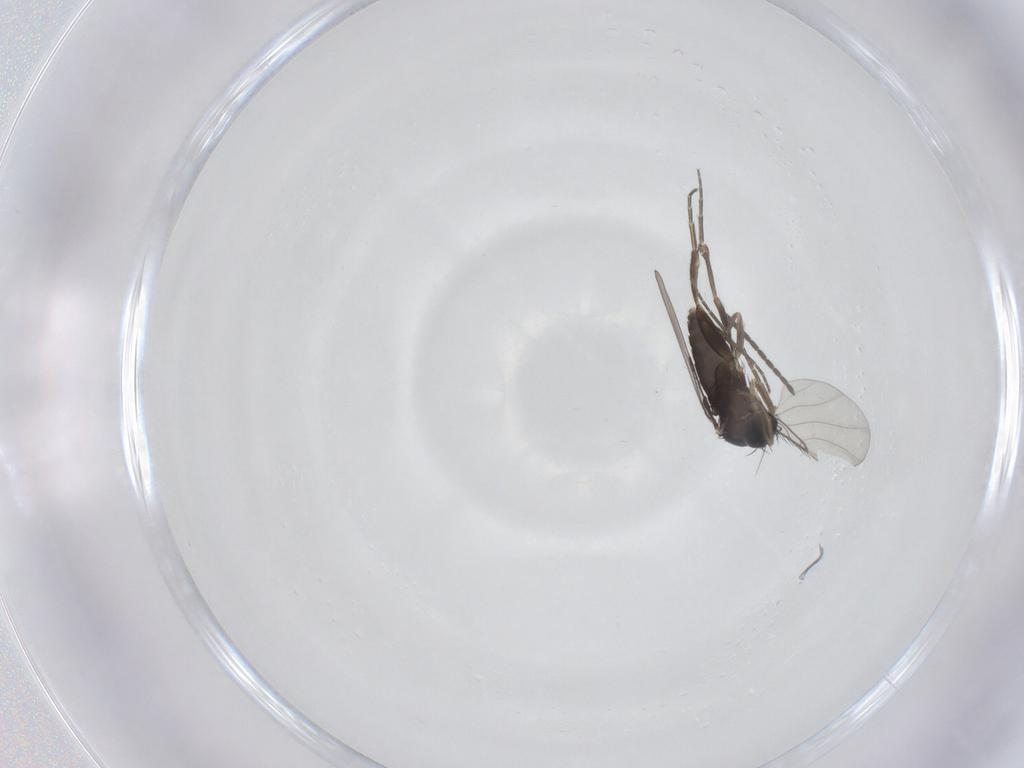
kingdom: Animalia
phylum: Arthropoda
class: Insecta
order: Diptera
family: Phoridae
